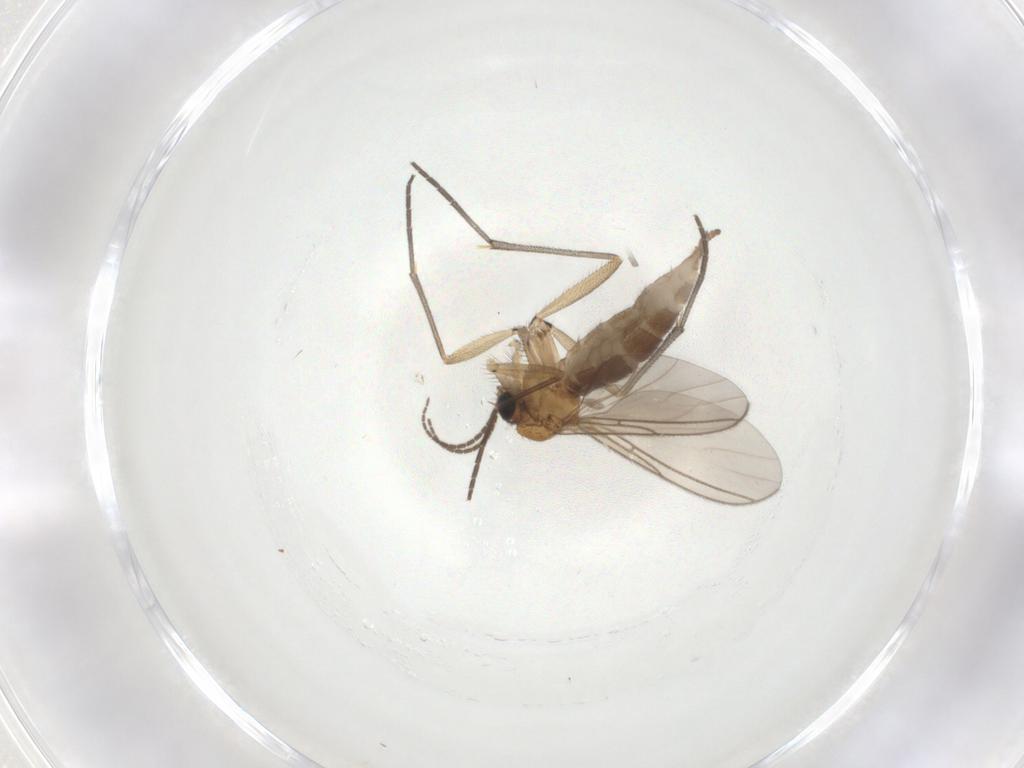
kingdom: Animalia
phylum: Arthropoda
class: Insecta
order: Diptera
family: Sciaridae
